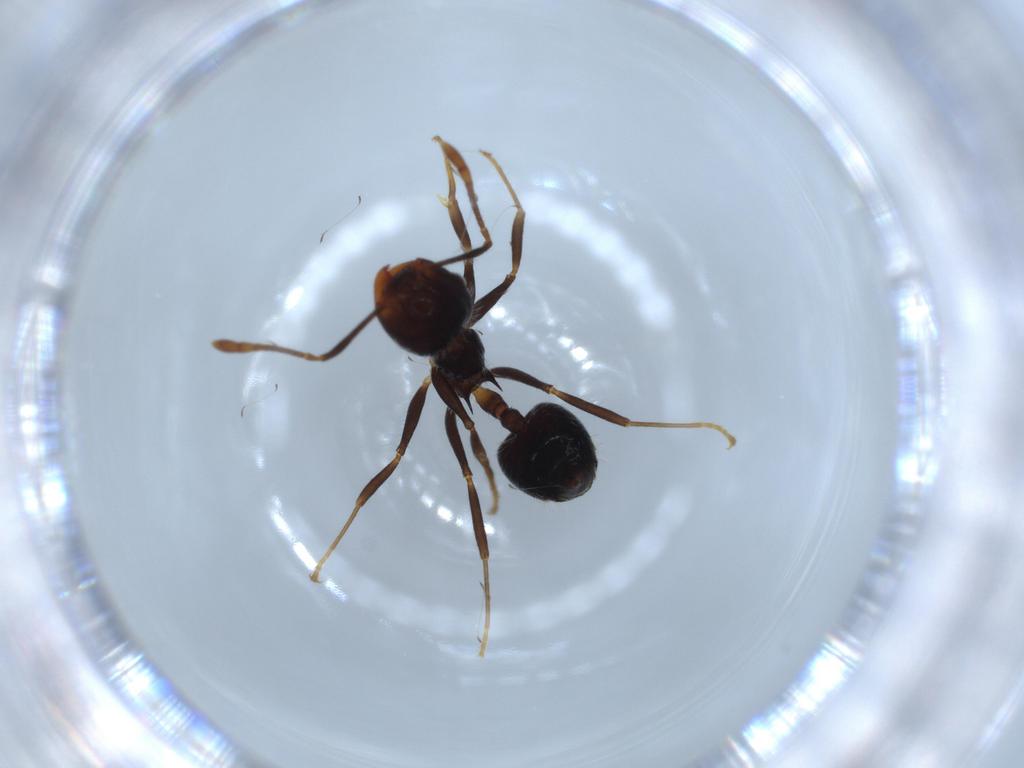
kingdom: Animalia
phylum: Arthropoda
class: Insecta
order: Hymenoptera
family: Formicidae
